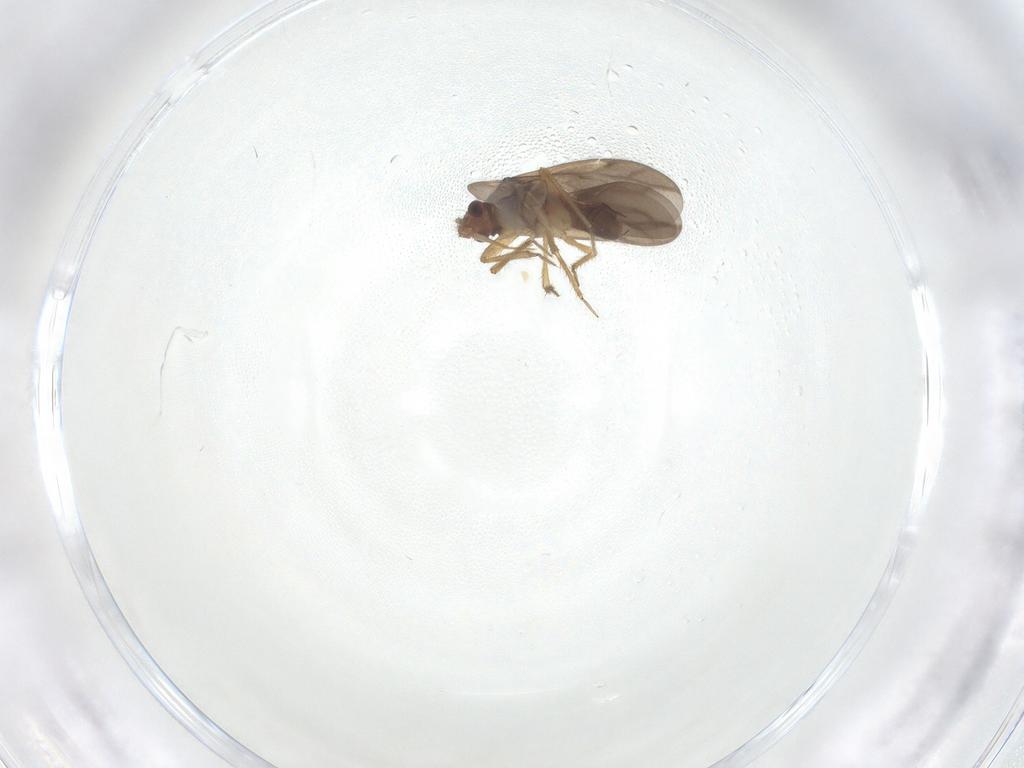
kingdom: Animalia
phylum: Arthropoda
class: Insecta
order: Hemiptera
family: Ceratocombidae
